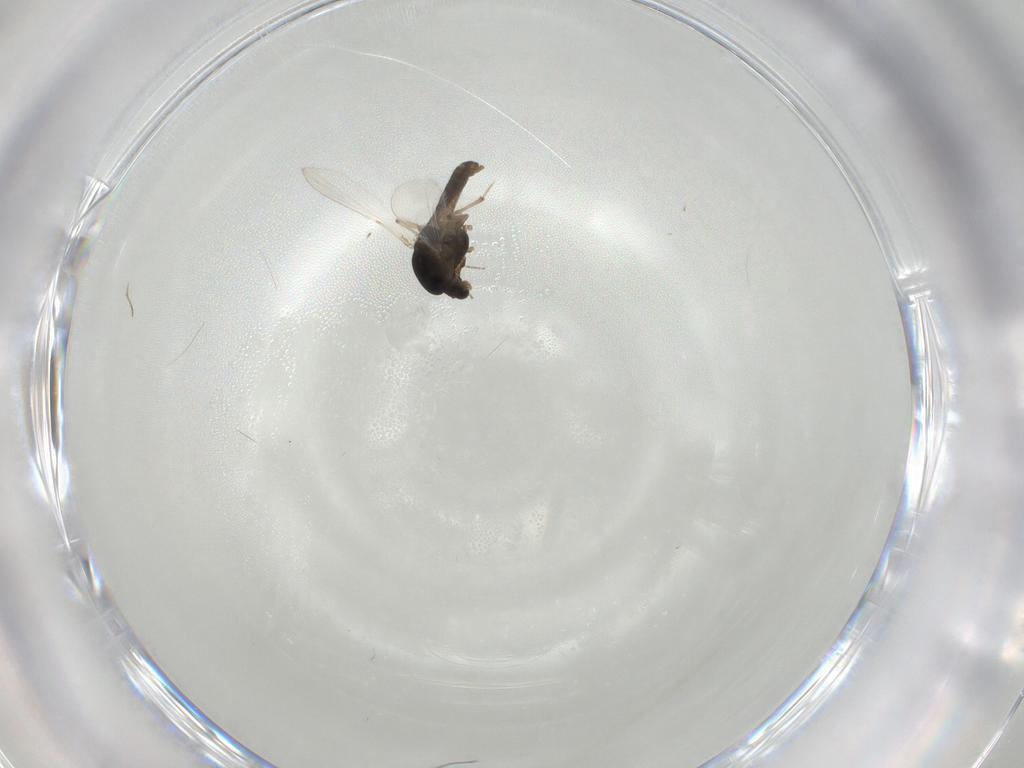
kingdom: Animalia
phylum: Arthropoda
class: Insecta
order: Diptera
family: Chironomidae
